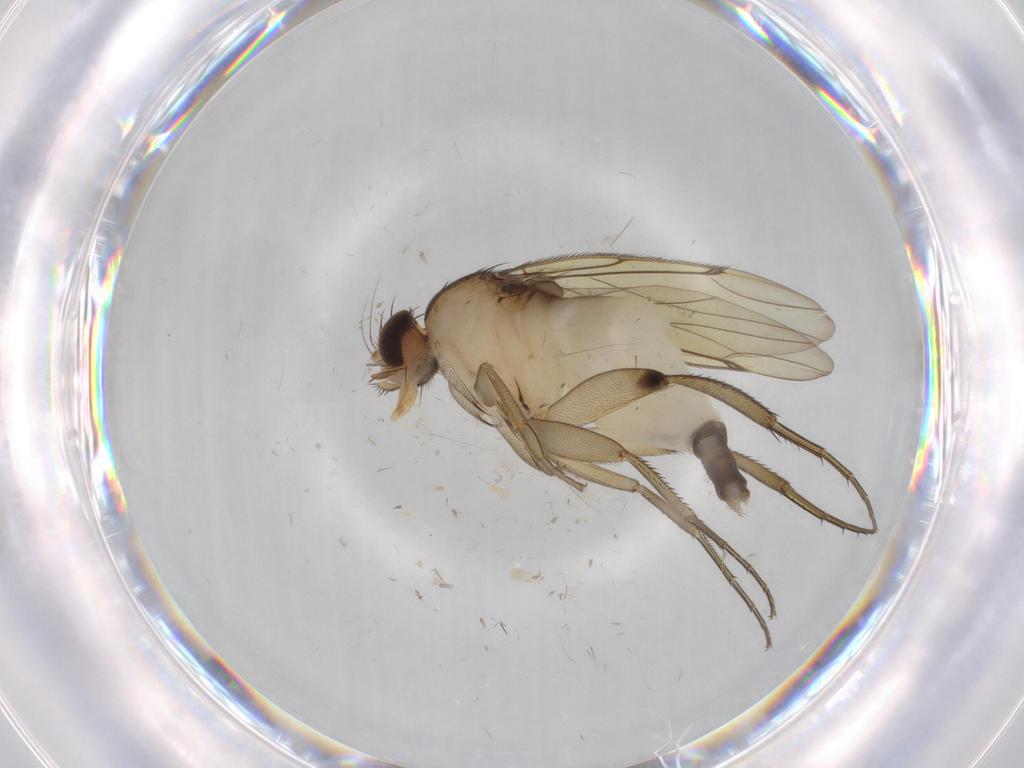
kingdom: Animalia
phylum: Arthropoda
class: Insecta
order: Diptera
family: Phoridae
